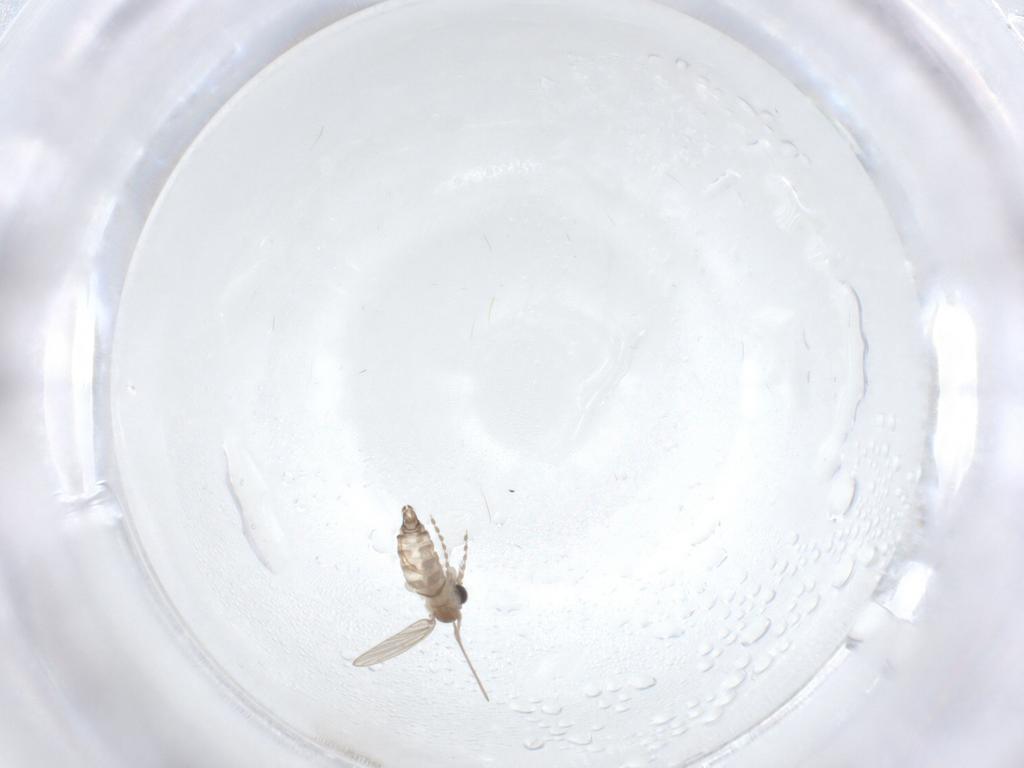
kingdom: Animalia
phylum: Arthropoda
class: Insecta
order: Diptera
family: Psychodidae
